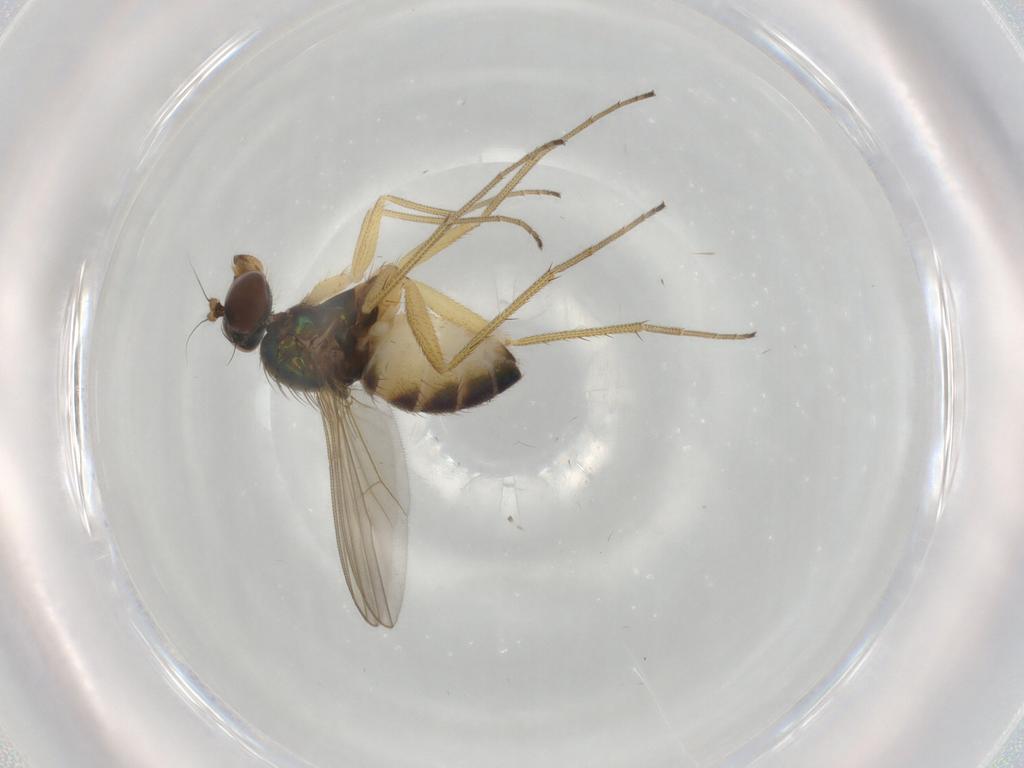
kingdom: Animalia
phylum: Arthropoda
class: Insecta
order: Diptera
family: Dolichopodidae
